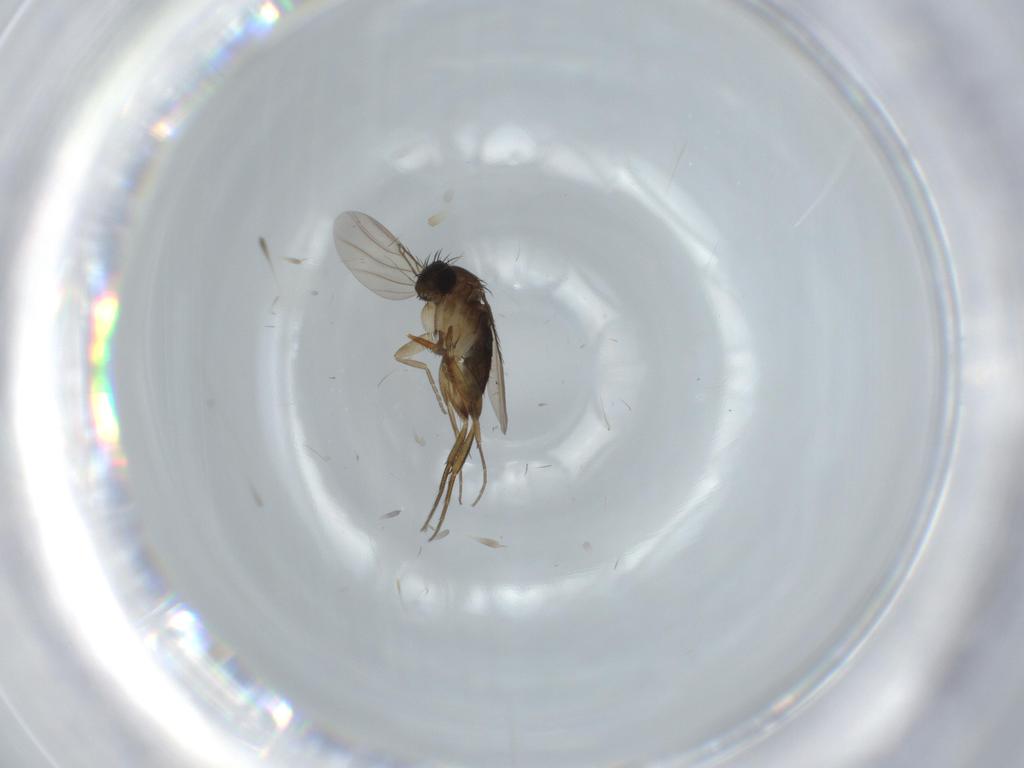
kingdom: Animalia
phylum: Arthropoda
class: Insecta
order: Diptera
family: Phoridae
